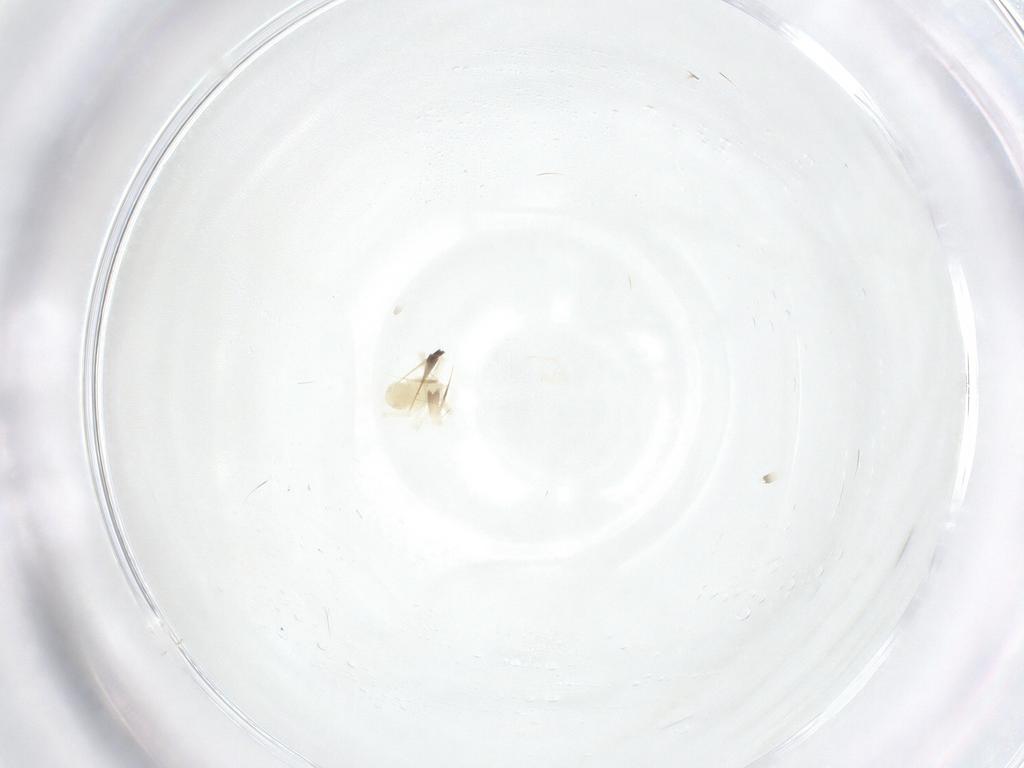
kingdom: Animalia
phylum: Arthropoda
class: Arachnida
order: Trombidiformes
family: Anystidae
